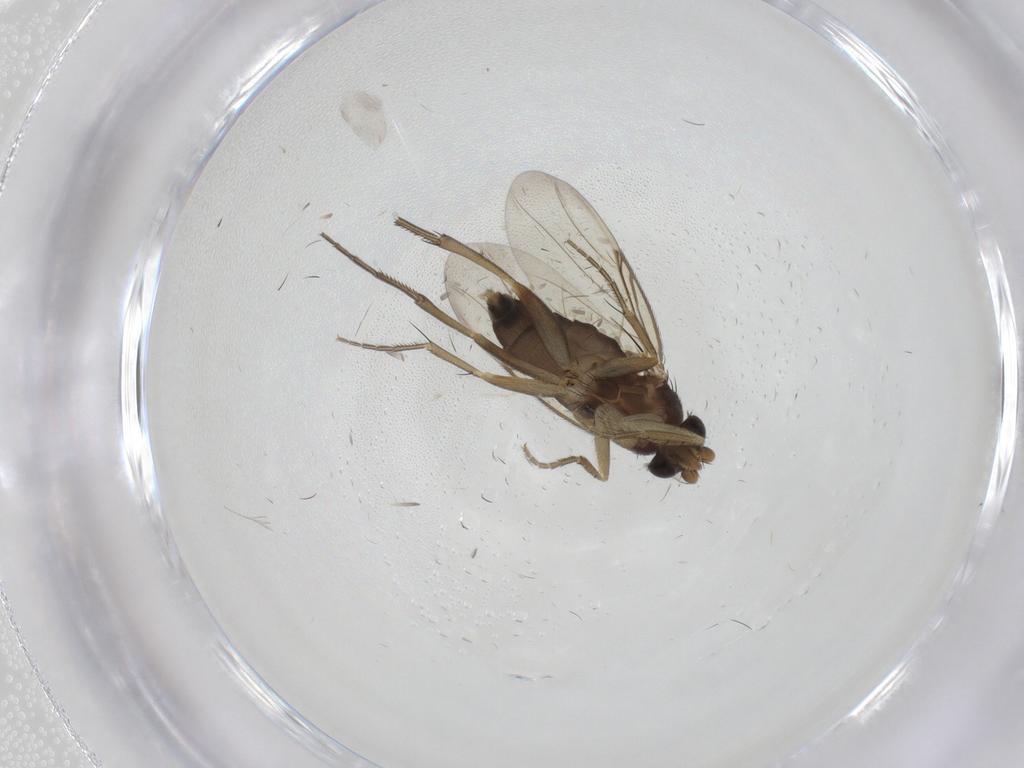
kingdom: Animalia
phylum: Arthropoda
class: Insecta
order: Diptera
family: Phoridae
